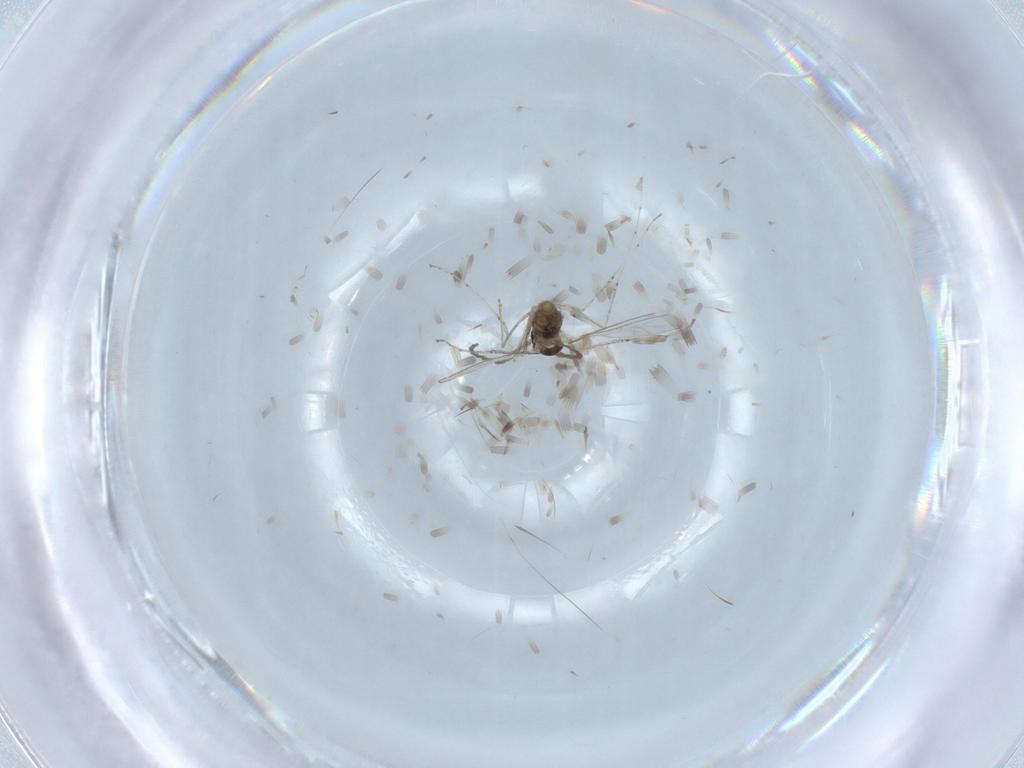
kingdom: Animalia
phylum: Arthropoda
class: Insecta
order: Diptera
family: Cecidomyiidae
